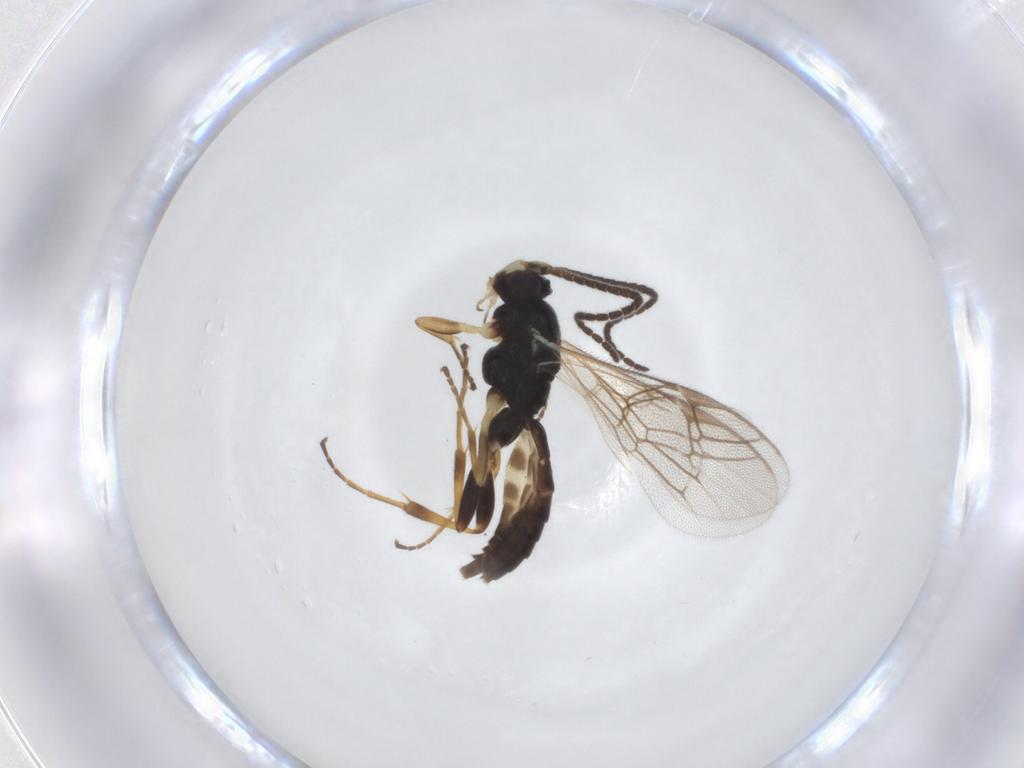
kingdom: Animalia
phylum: Arthropoda
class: Insecta
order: Hymenoptera
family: Ichneumonidae
